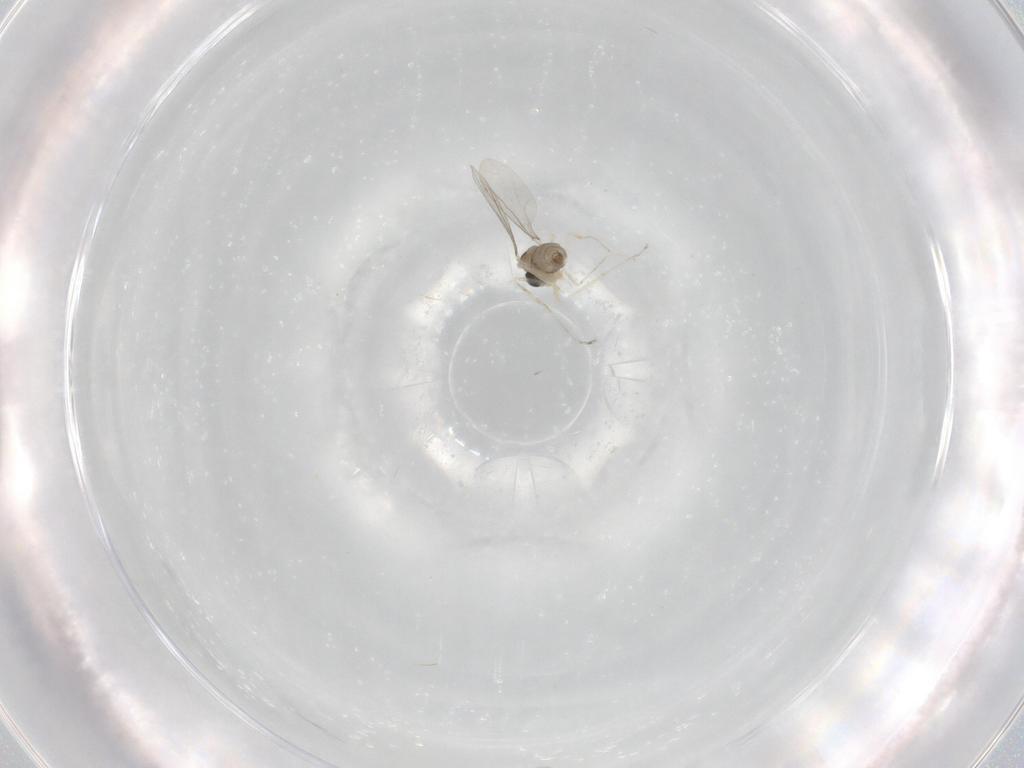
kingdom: Animalia
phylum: Arthropoda
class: Insecta
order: Diptera
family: Cecidomyiidae
